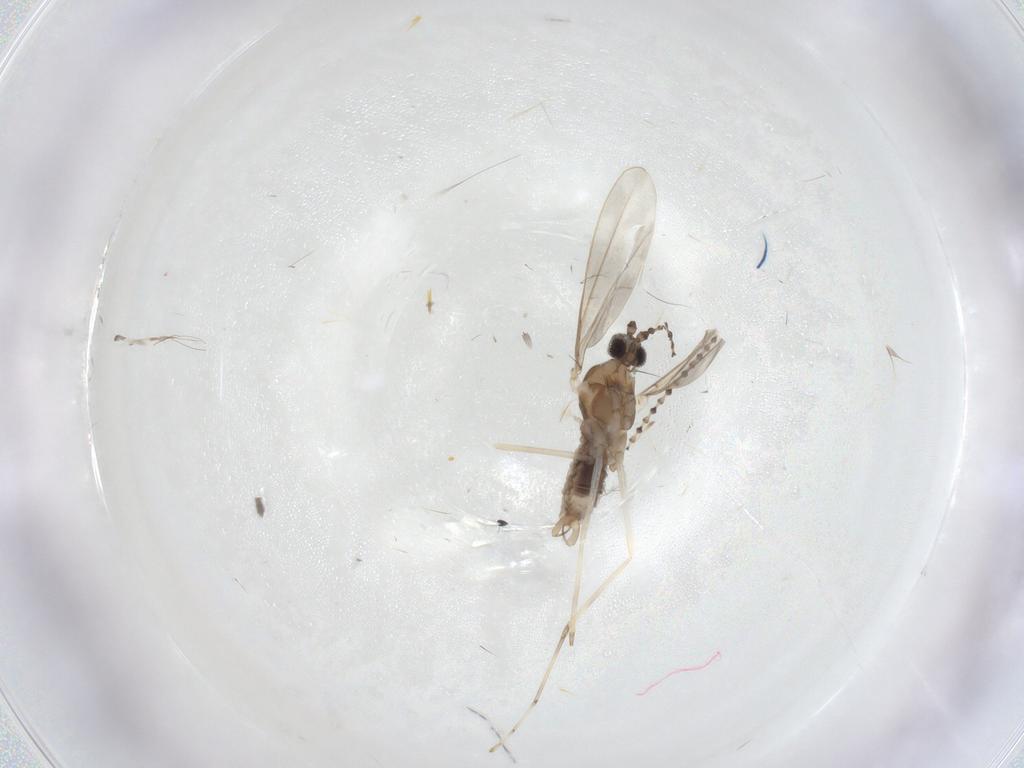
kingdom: Animalia
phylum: Arthropoda
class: Insecta
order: Diptera
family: Cecidomyiidae
